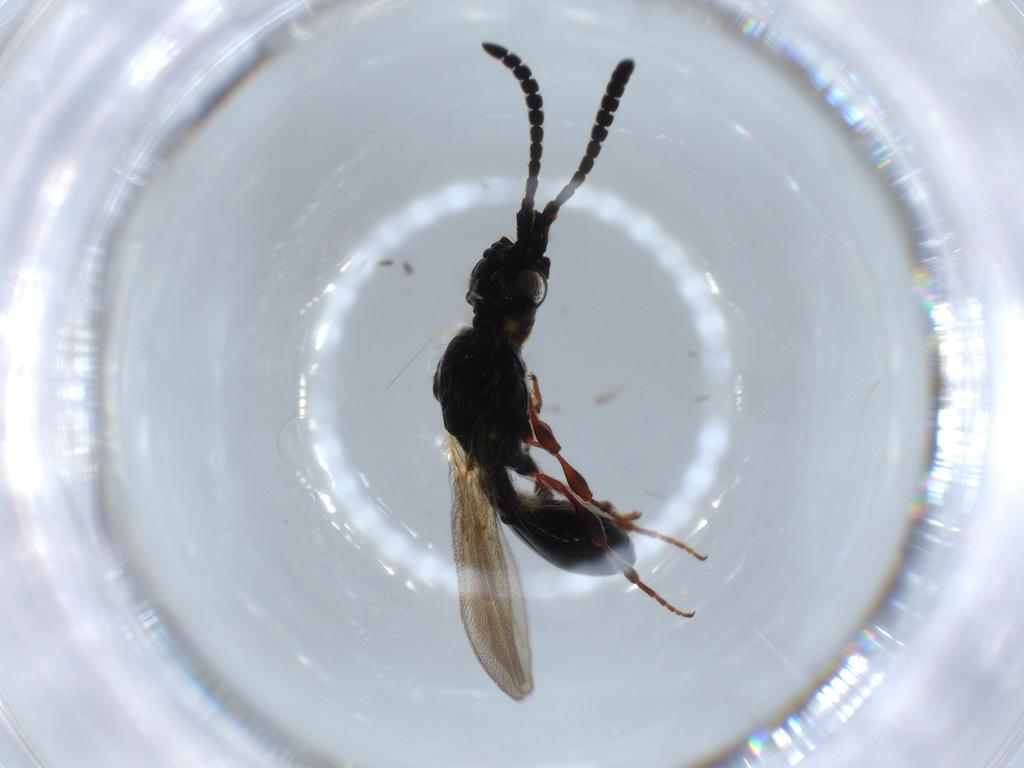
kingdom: Animalia
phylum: Arthropoda
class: Insecta
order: Hymenoptera
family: Diapriidae
